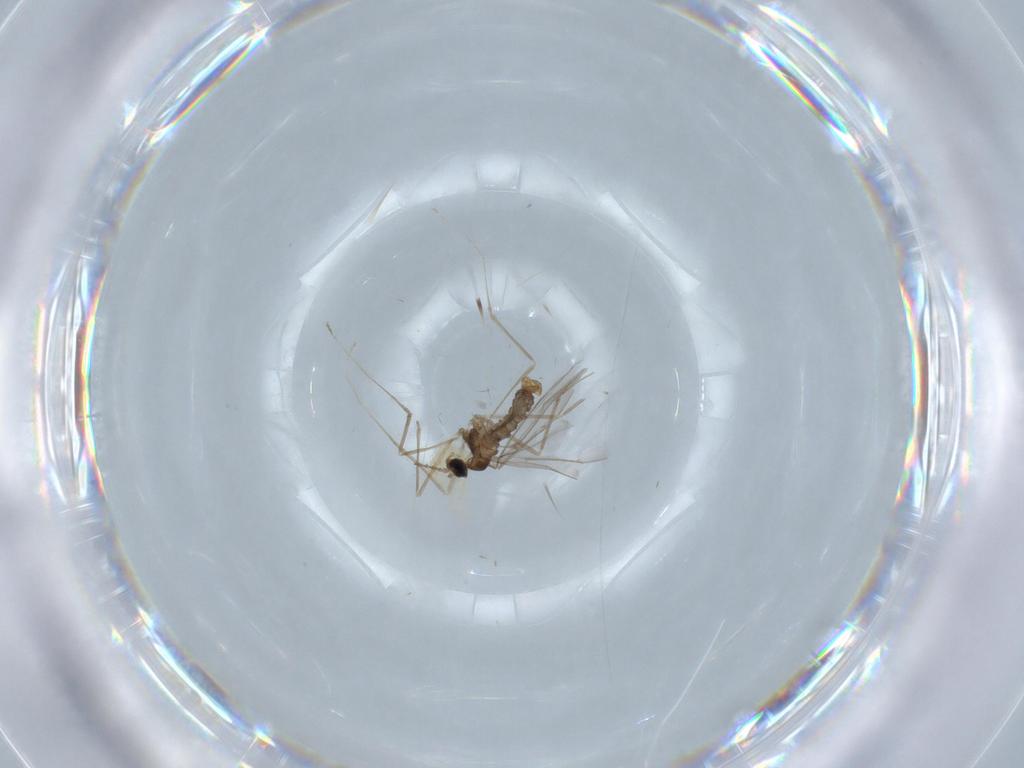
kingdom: Animalia
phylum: Arthropoda
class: Insecta
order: Diptera
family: Cecidomyiidae
